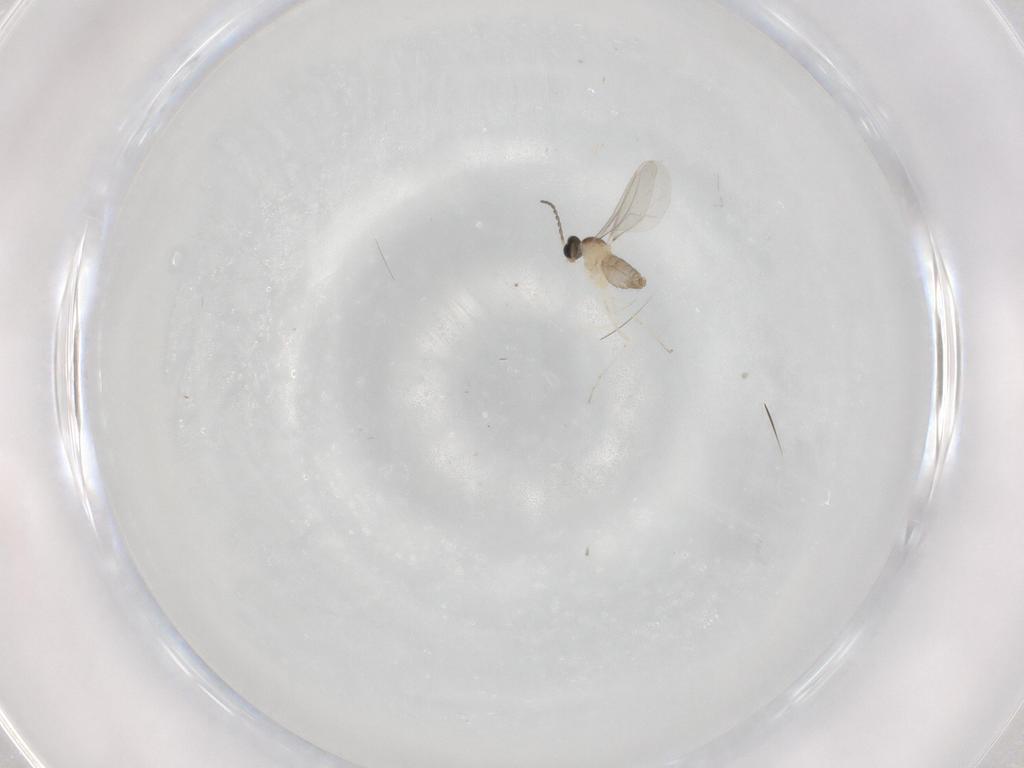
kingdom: Animalia
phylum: Arthropoda
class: Insecta
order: Diptera
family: Cecidomyiidae
